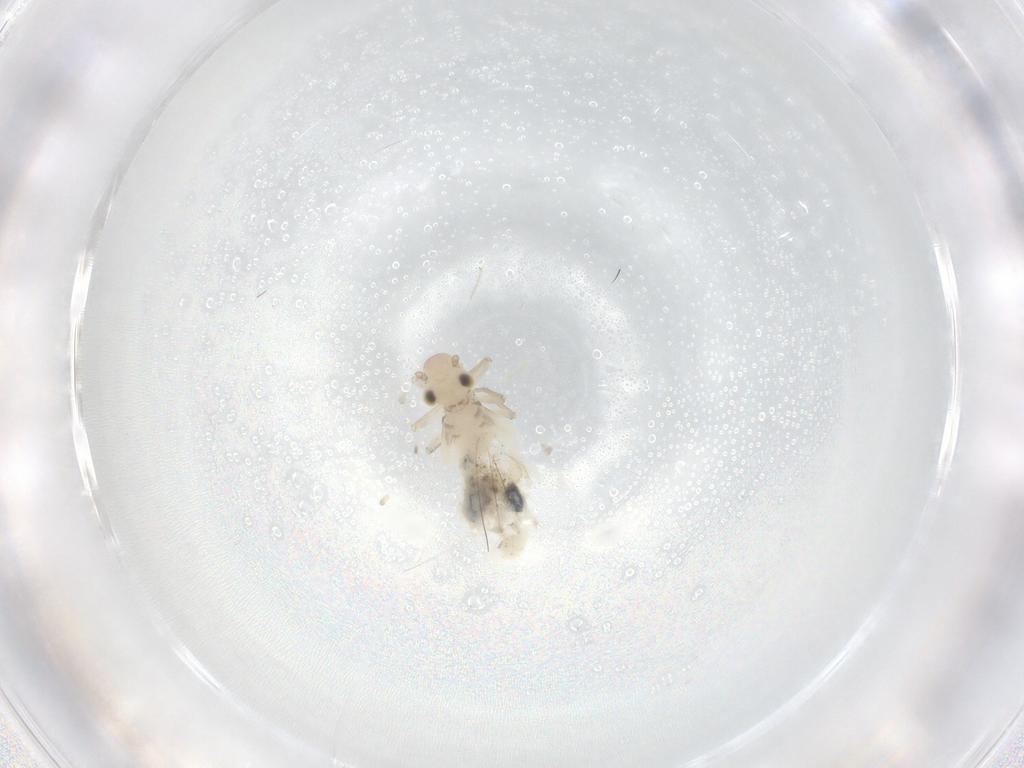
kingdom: Animalia
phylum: Arthropoda
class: Insecta
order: Psocodea
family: Caeciliusidae
